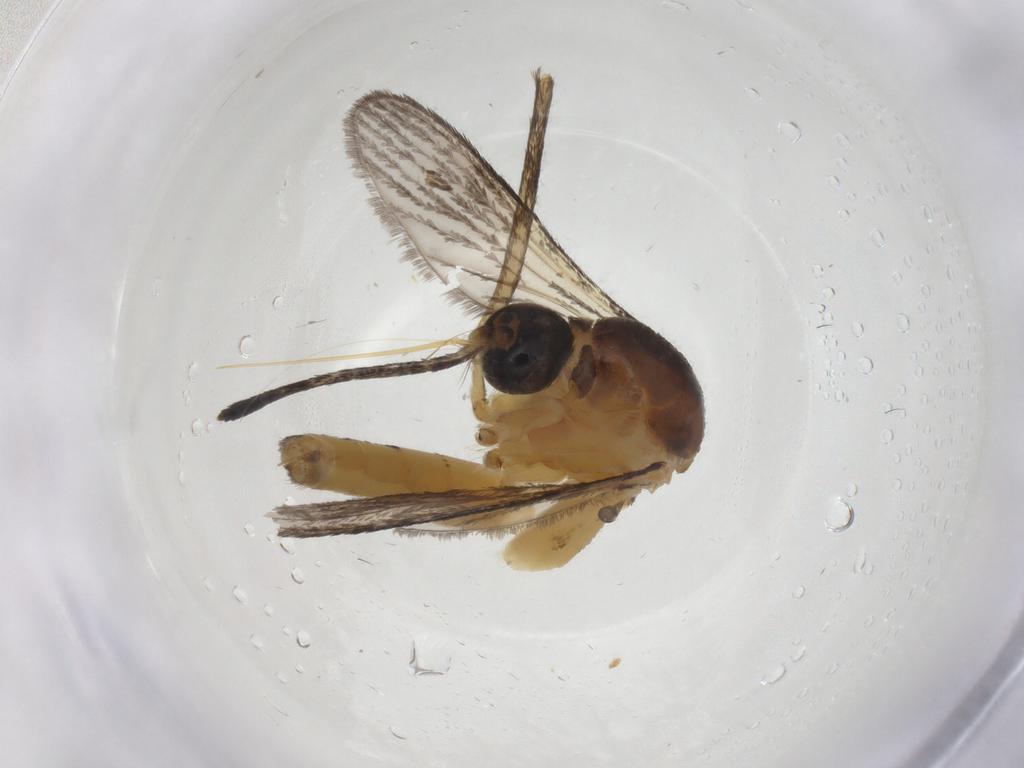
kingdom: Animalia
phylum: Arthropoda
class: Insecta
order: Diptera
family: Culicidae
